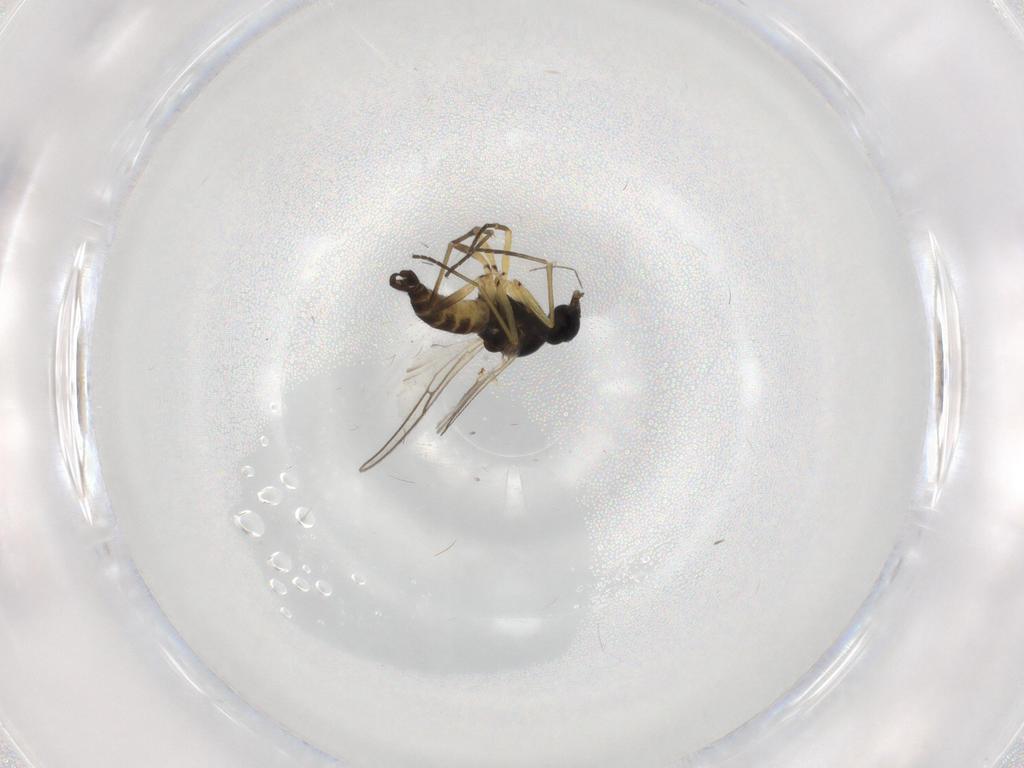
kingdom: Animalia
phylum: Arthropoda
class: Insecta
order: Diptera
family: Sciaridae
